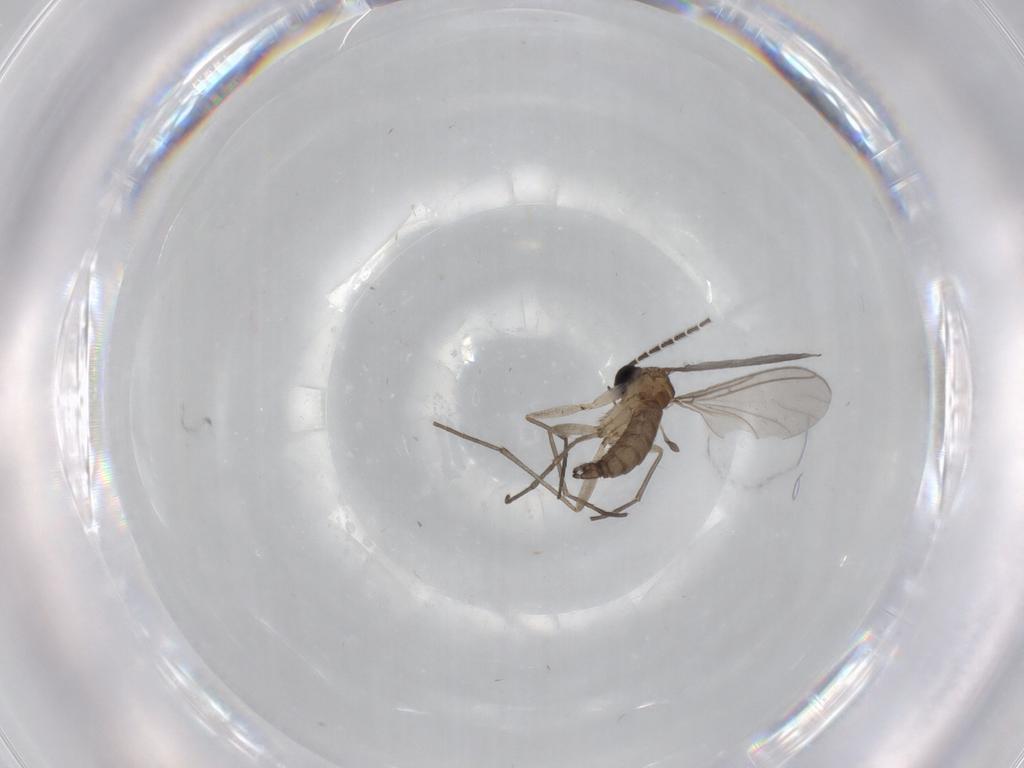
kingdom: Animalia
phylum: Arthropoda
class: Insecta
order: Diptera
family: Sciaridae
